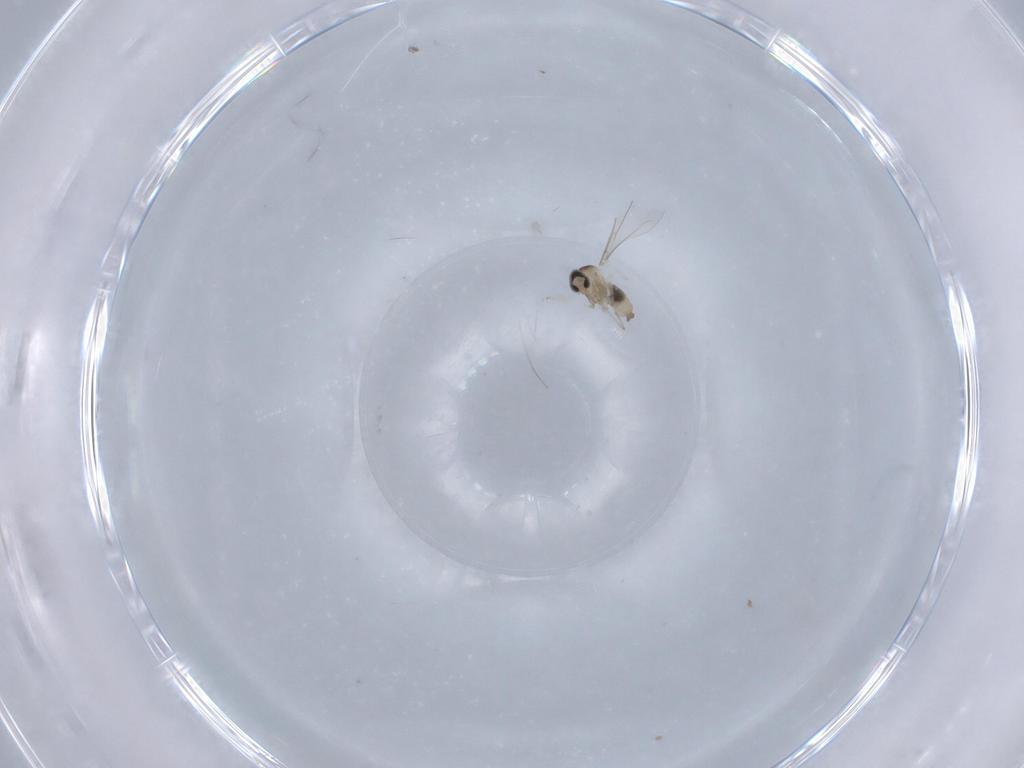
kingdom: Animalia
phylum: Arthropoda
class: Insecta
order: Diptera
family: Cecidomyiidae
